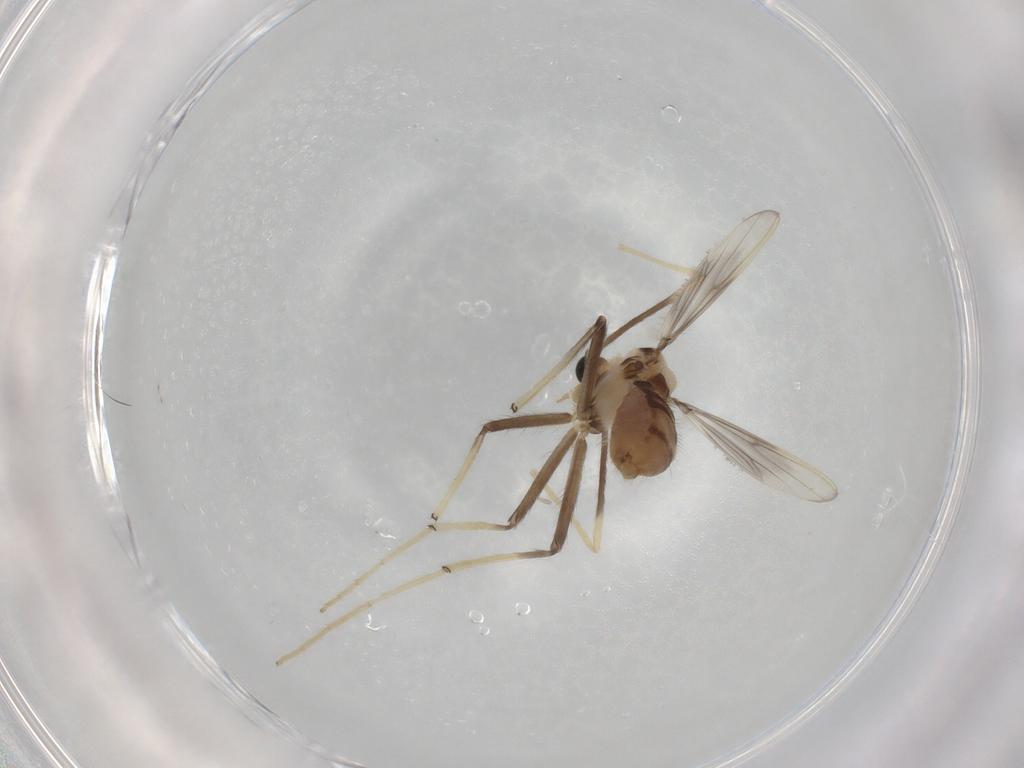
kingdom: Animalia
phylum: Arthropoda
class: Insecta
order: Diptera
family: Chironomidae
